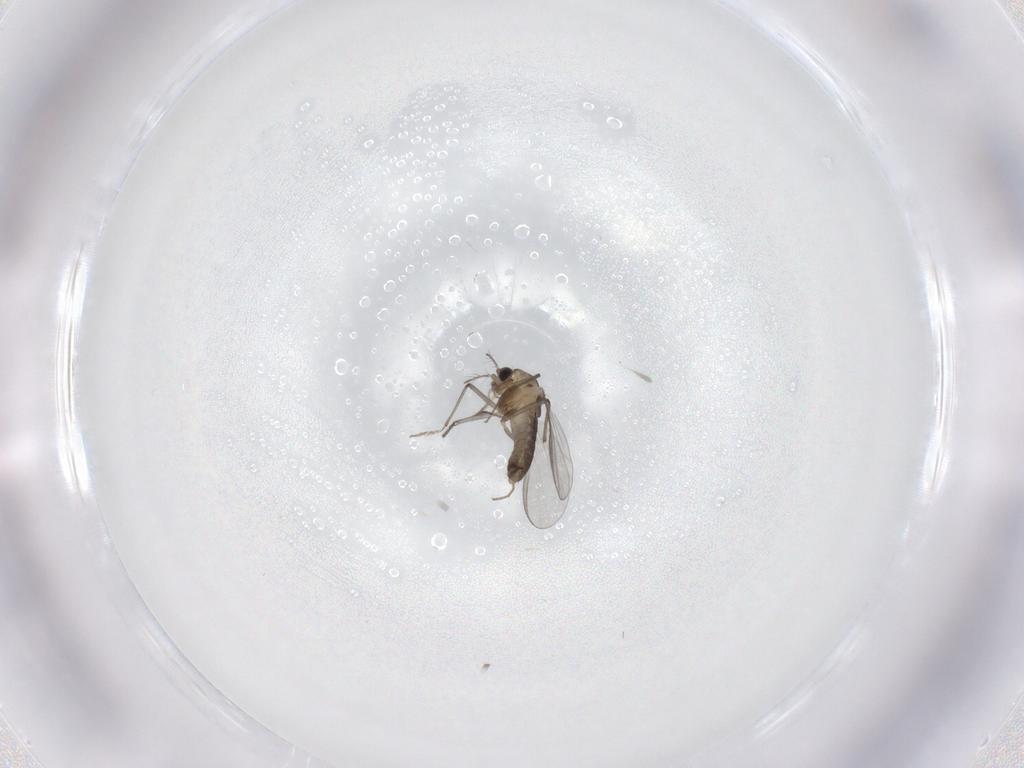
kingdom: Animalia
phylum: Arthropoda
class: Insecta
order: Diptera
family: Chironomidae
